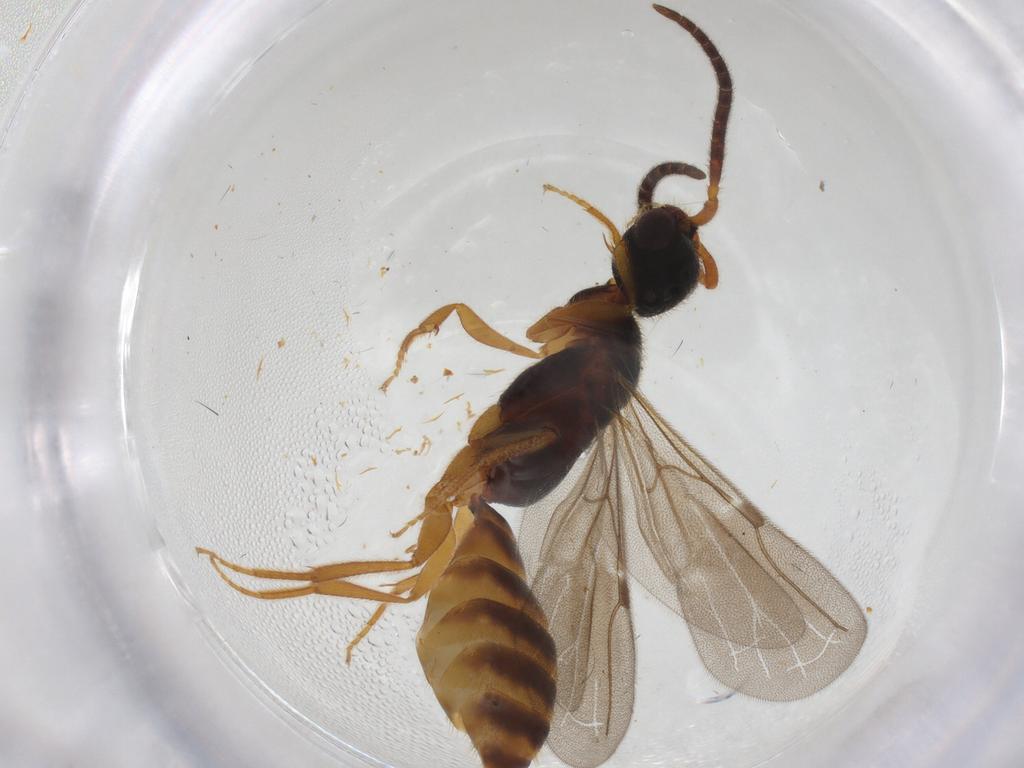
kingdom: Animalia
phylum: Arthropoda
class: Insecta
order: Hymenoptera
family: Bethylidae
